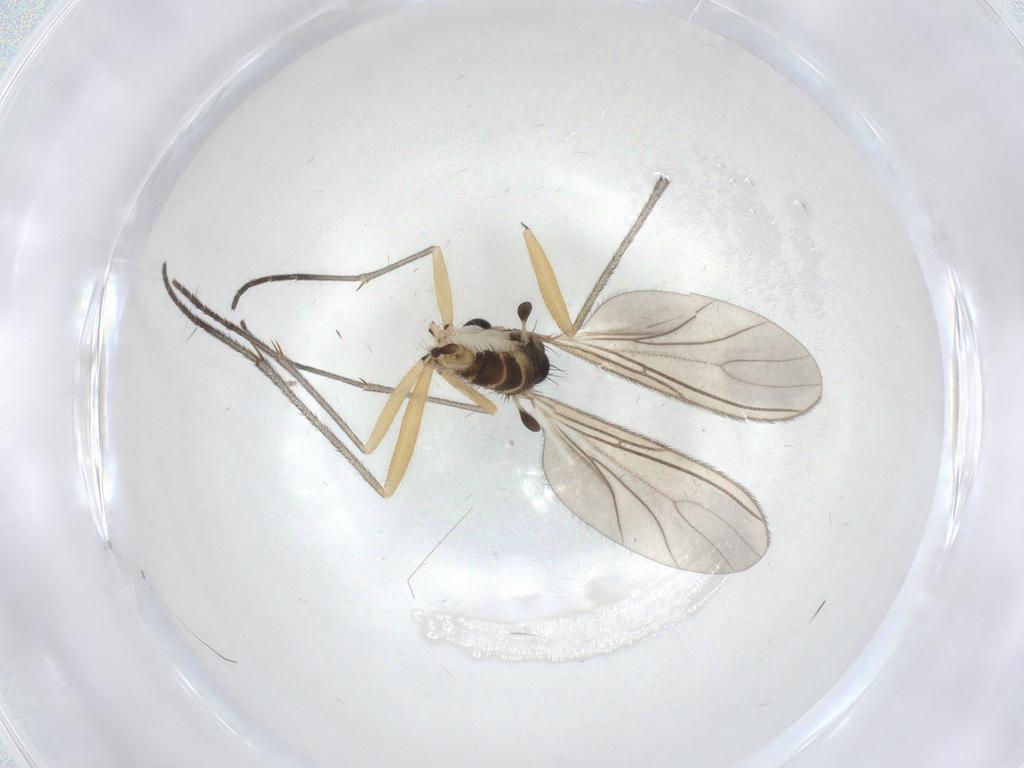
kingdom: Animalia
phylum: Arthropoda
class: Insecta
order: Diptera
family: Sciaridae
